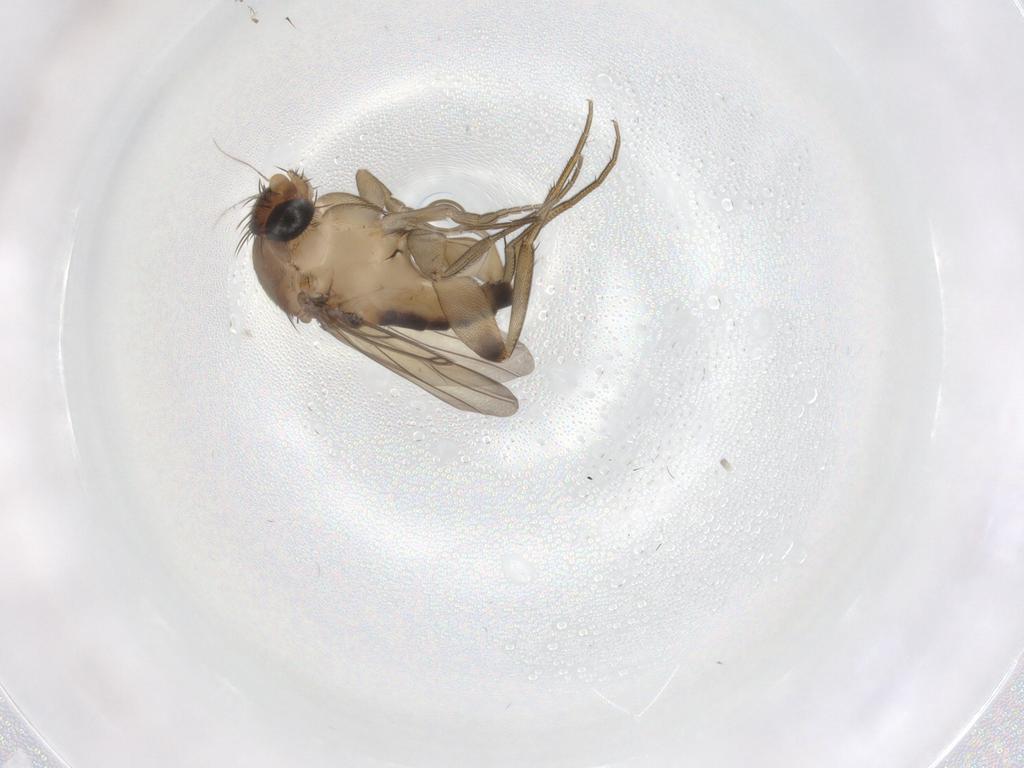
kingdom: Animalia
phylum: Arthropoda
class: Insecta
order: Diptera
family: Phoridae
